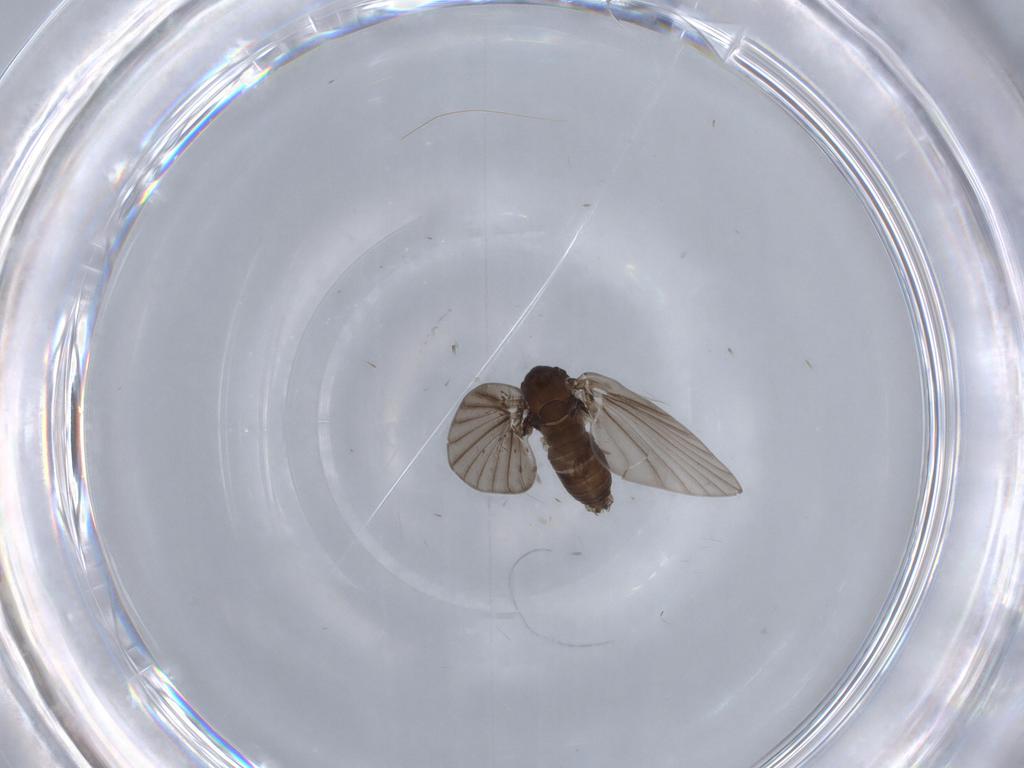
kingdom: Animalia
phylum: Arthropoda
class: Insecta
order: Diptera
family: Psychodidae
